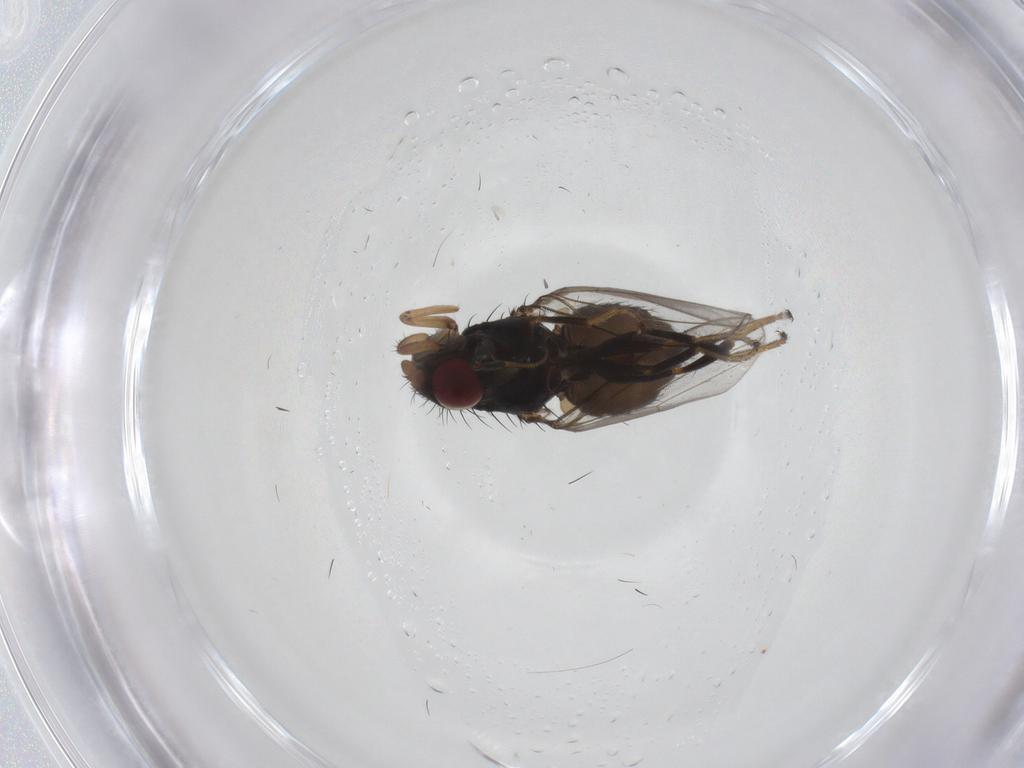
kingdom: Animalia
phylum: Arthropoda
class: Insecta
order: Diptera
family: Milichiidae
